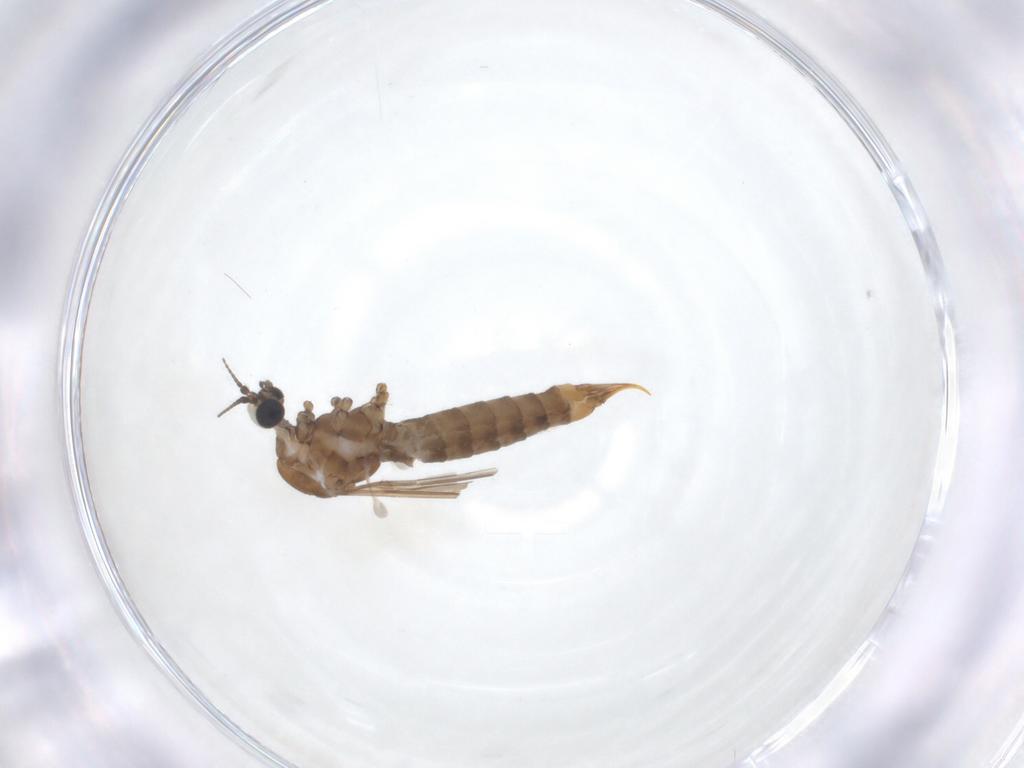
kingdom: Animalia
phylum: Arthropoda
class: Insecta
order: Diptera
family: Limoniidae
